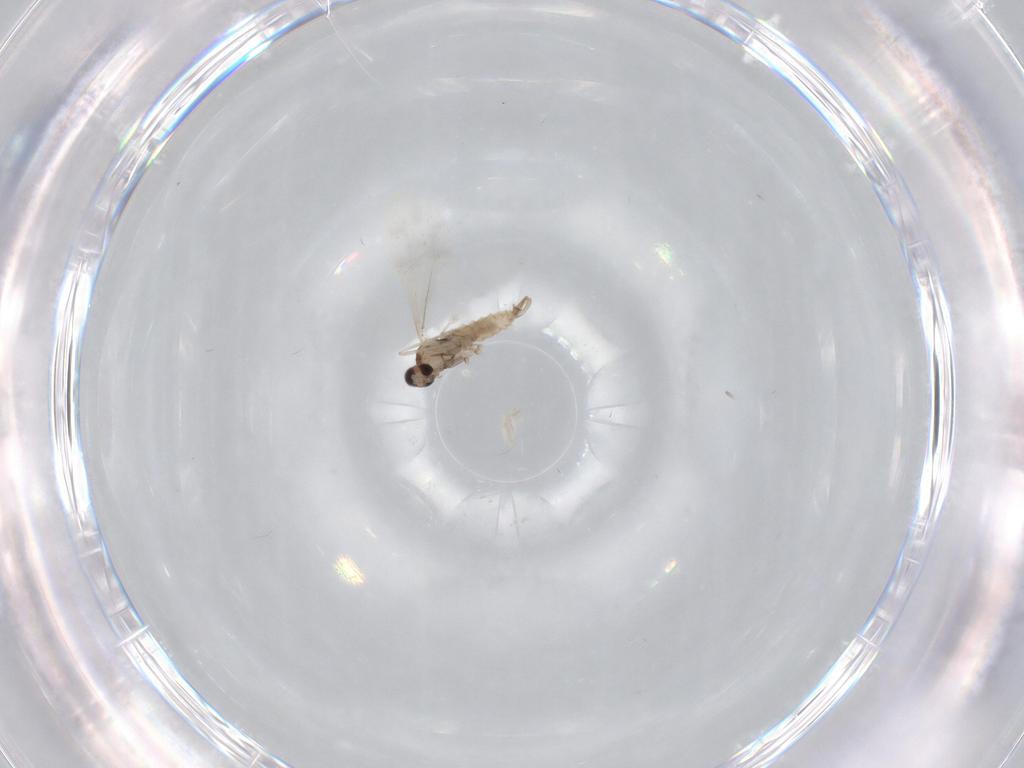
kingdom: Animalia
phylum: Arthropoda
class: Insecta
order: Diptera
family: Cecidomyiidae
